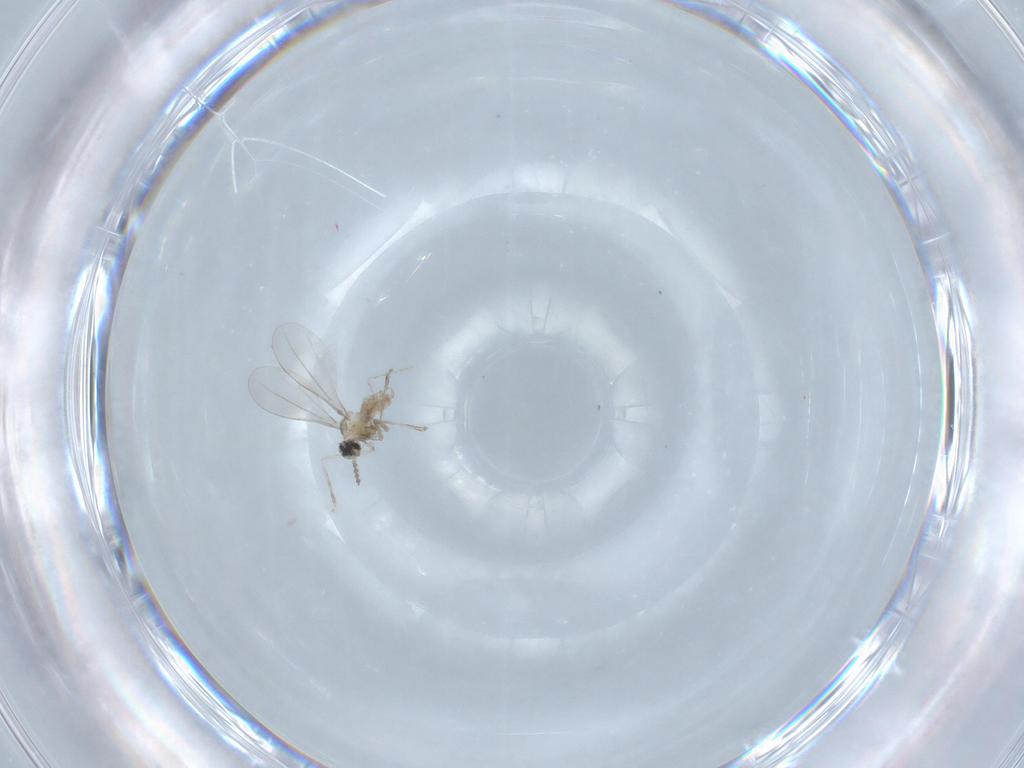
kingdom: Animalia
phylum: Arthropoda
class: Insecta
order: Diptera
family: Cecidomyiidae
